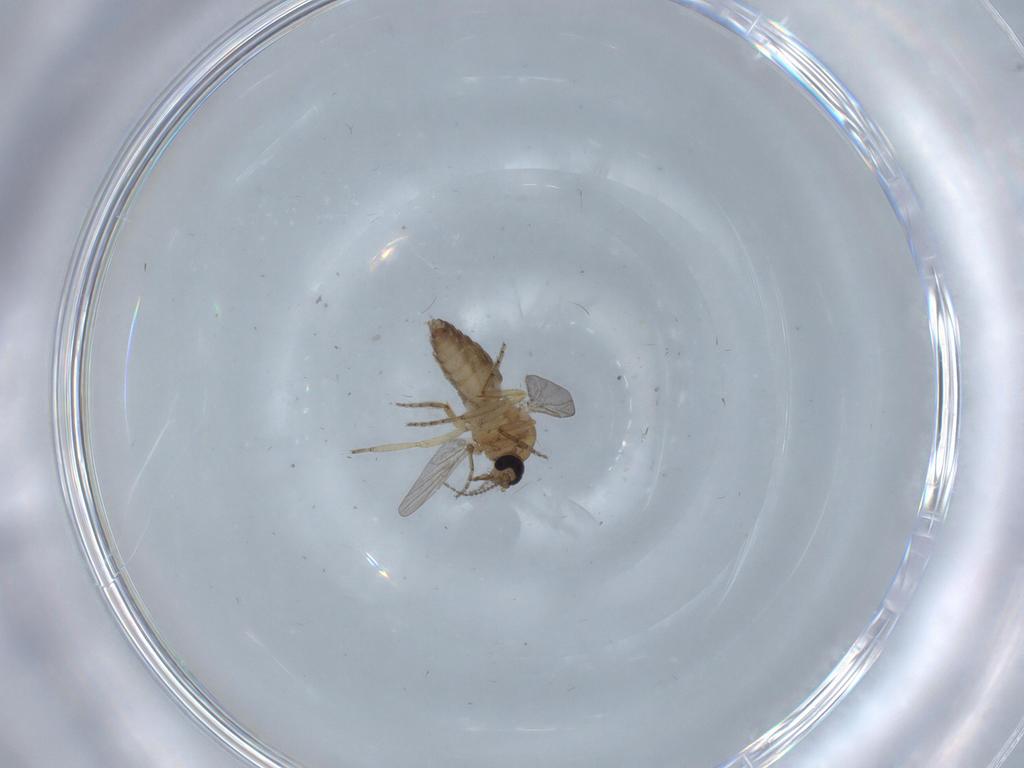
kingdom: Animalia
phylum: Arthropoda
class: Insecta
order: Diptera
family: Ceratopogonidae
